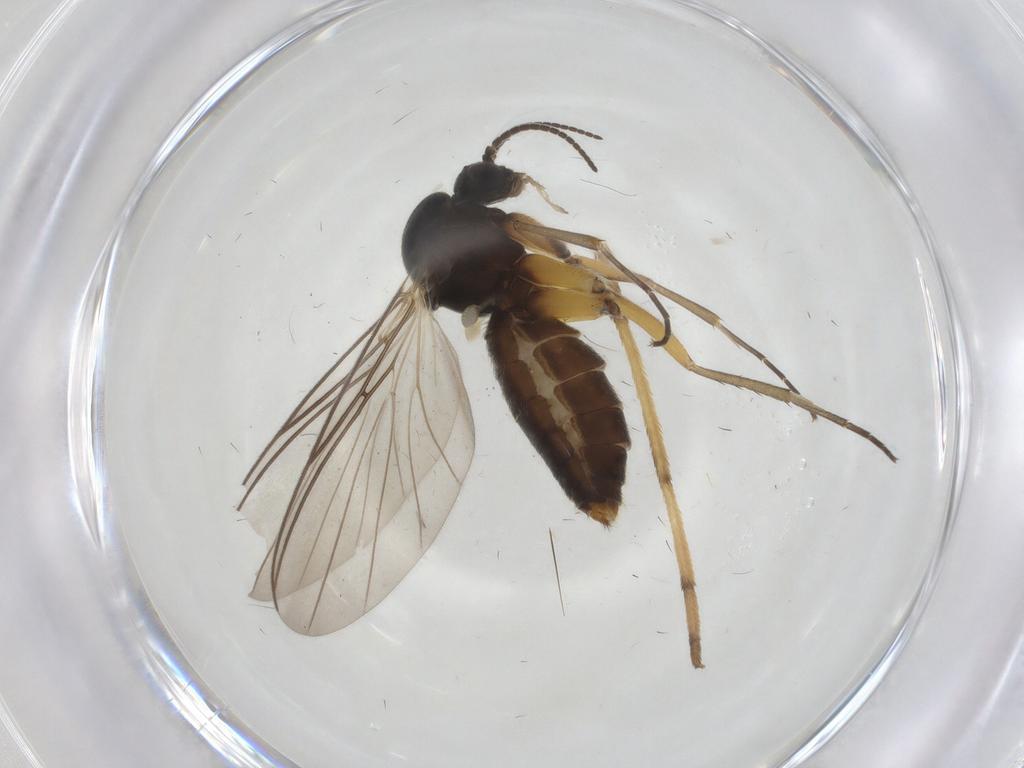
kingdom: Animalia
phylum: Arthropoda
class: Insecta
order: Diptera
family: Mycetophilidae
